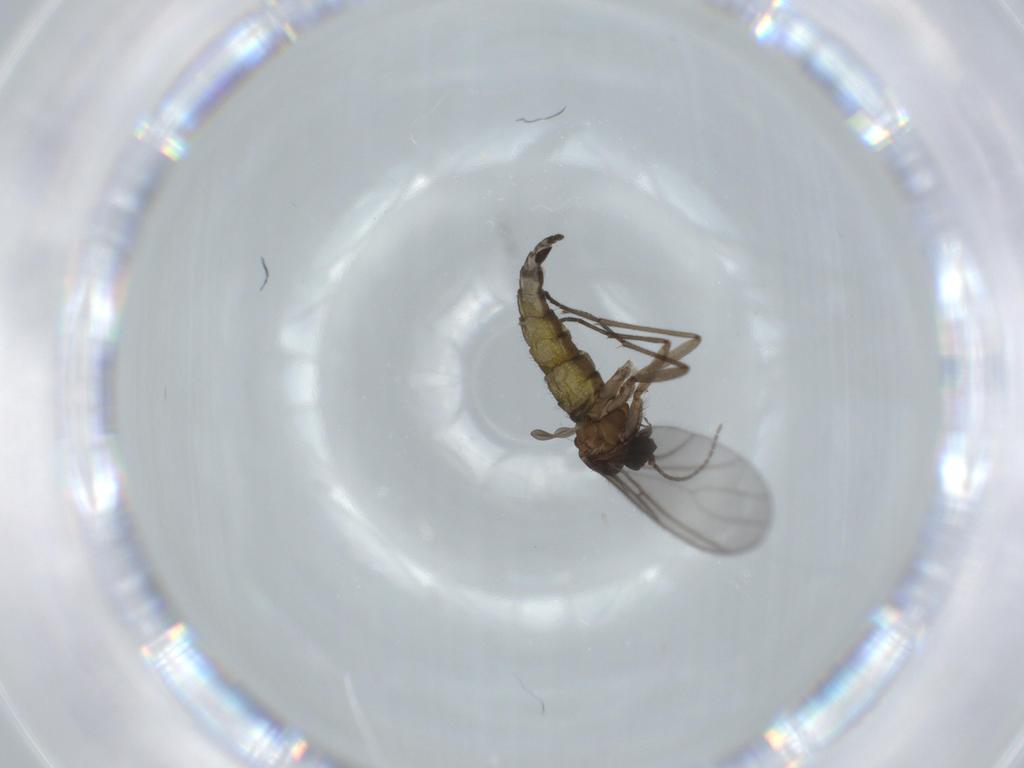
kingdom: Animalia
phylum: Arthropoda
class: Insecta
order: Diptera
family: Sciaridae
